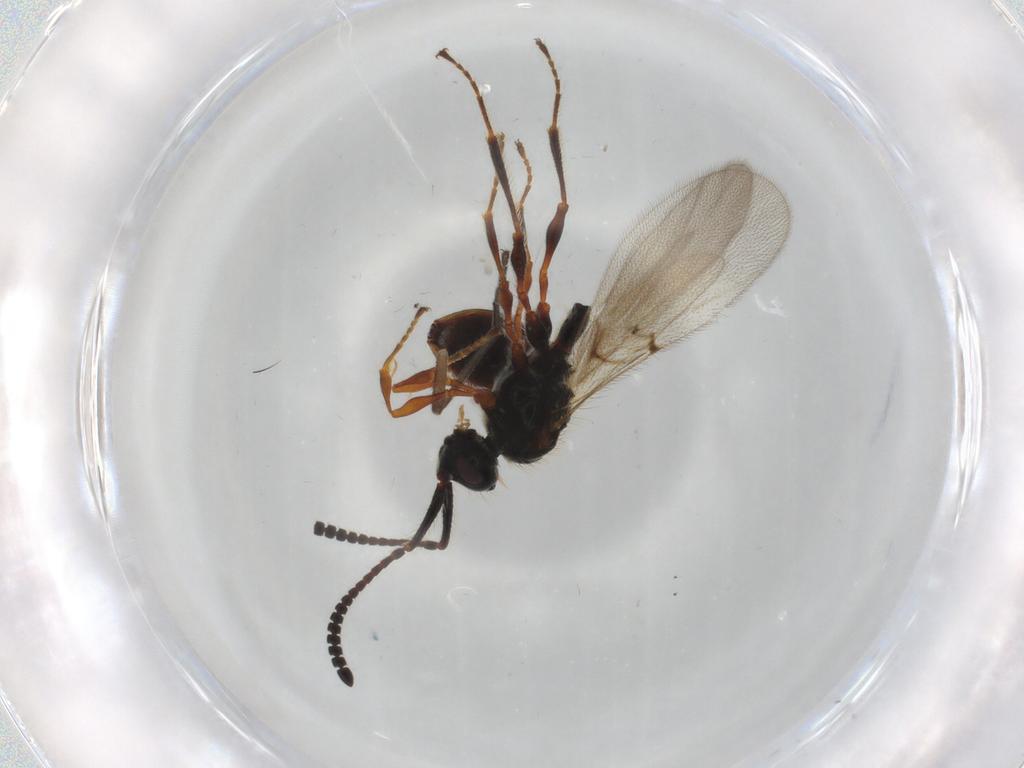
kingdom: Animalia
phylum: Arthropoda
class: Insecta
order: Hymenoptera
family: Diapriidae
